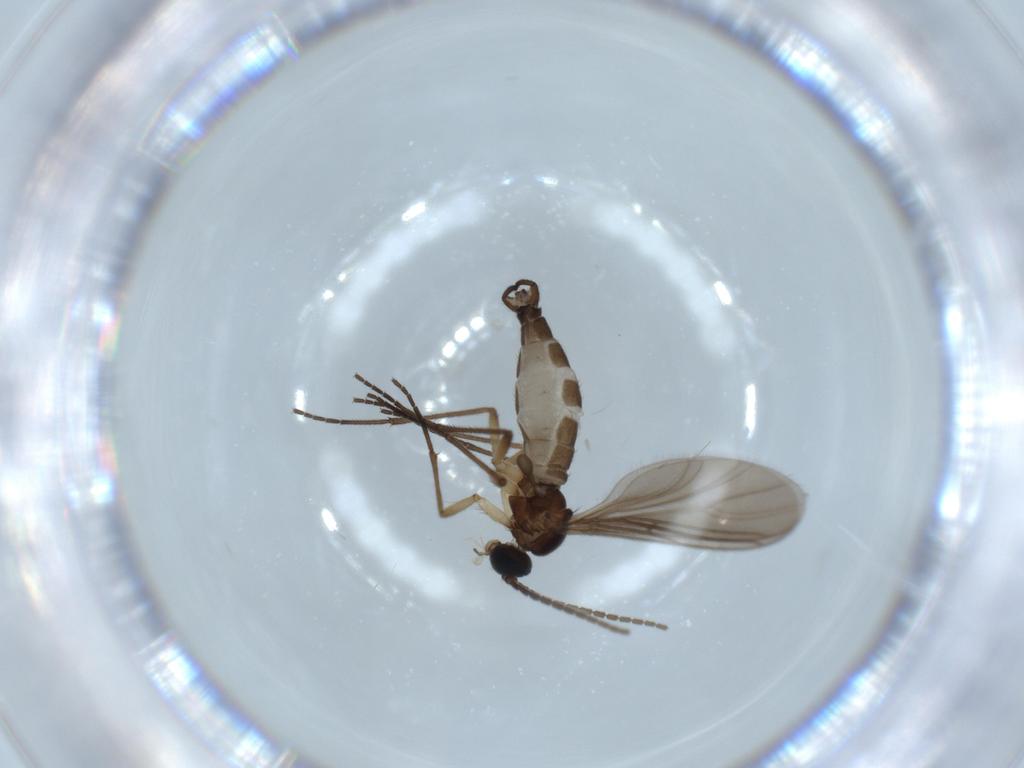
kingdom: Animalia
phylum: Arthropoda
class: Insecta
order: Diptera
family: Sciaridae
